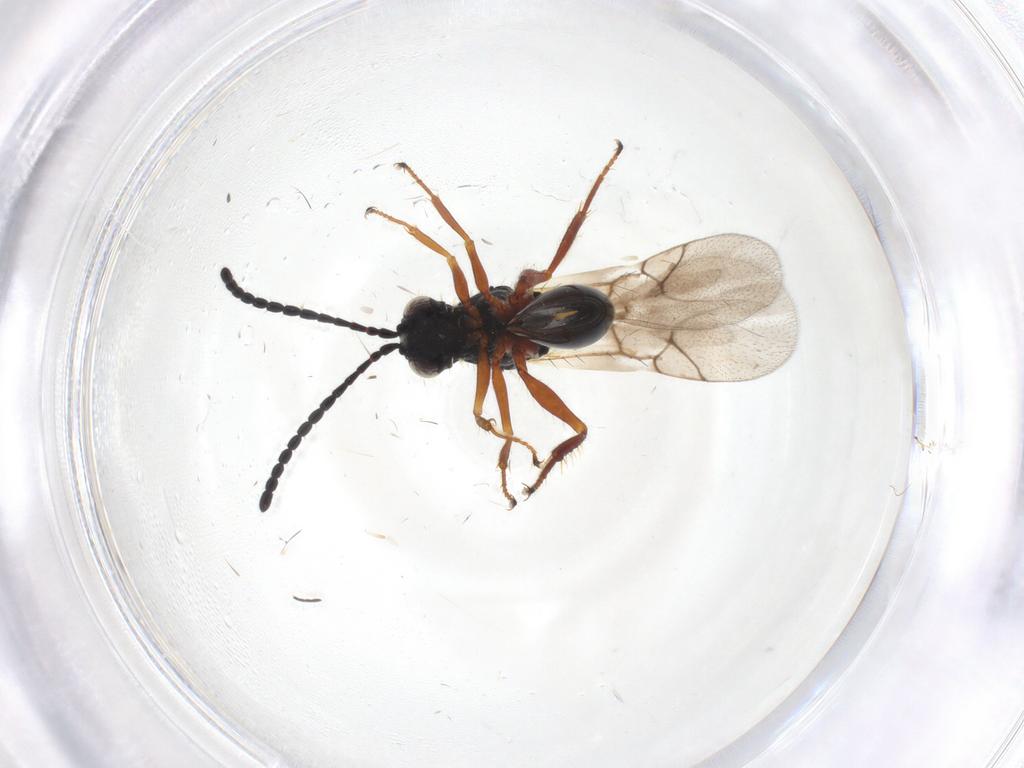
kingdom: Animalia
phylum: Arthropoda
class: Insecta
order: Hymenoptera
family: Figitidae
